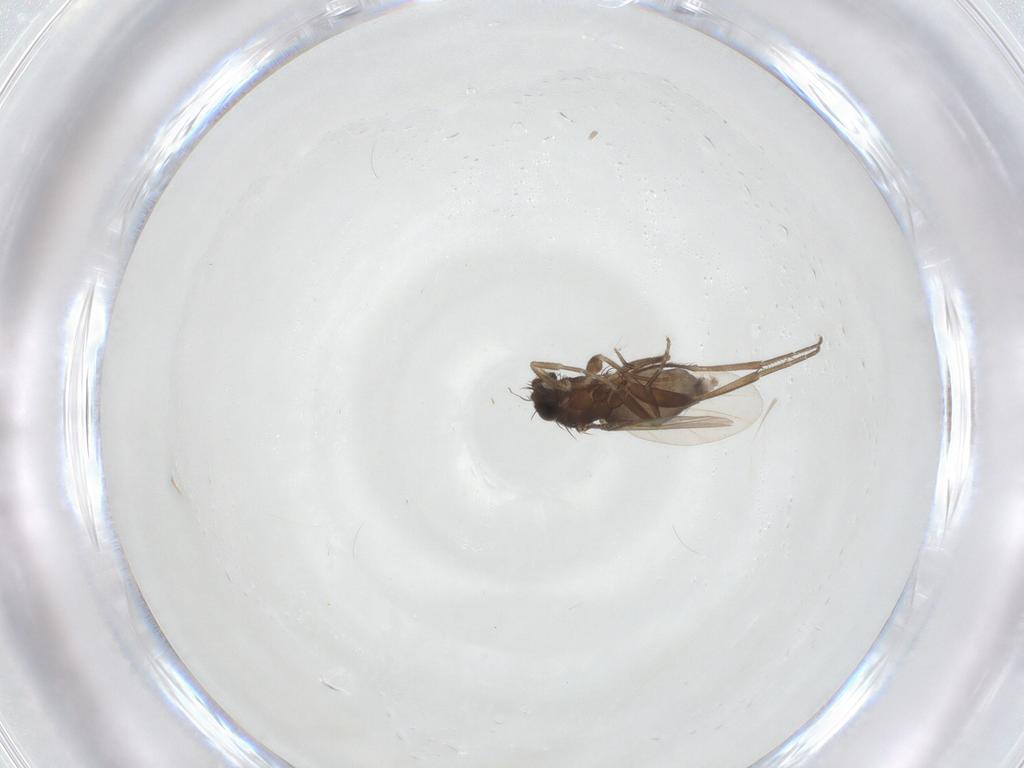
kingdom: Animalia
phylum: Arthropoda
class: Insecta
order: Diptera
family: Phoridae
